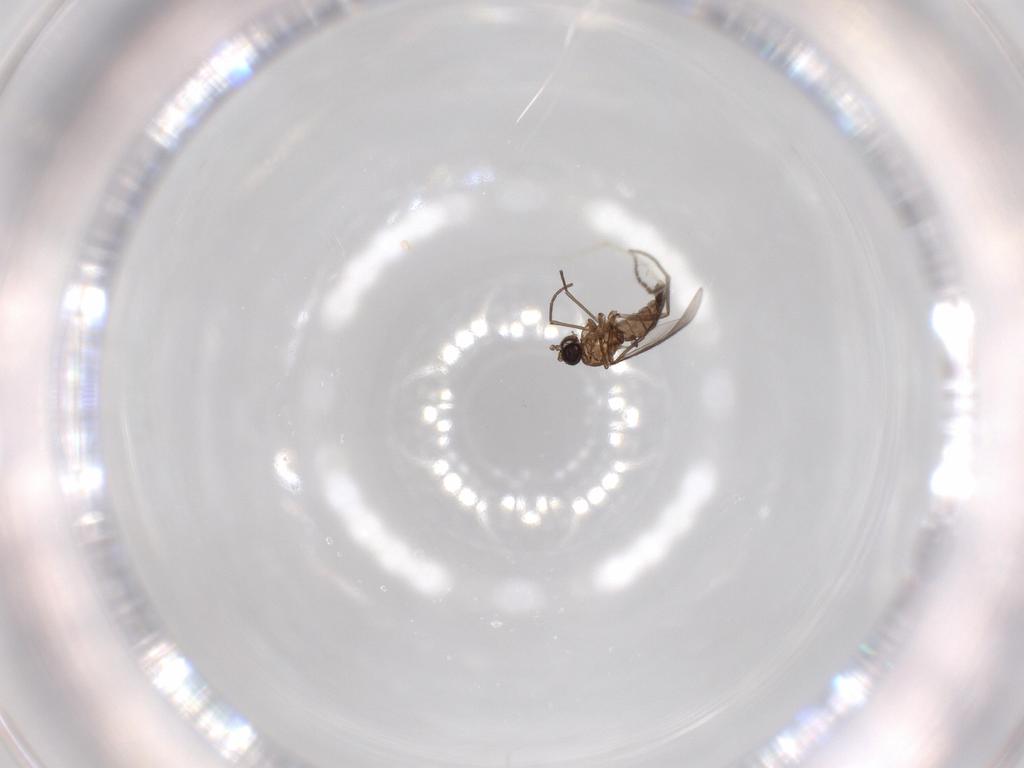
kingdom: Animalia
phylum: Arthropoda
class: Insecta
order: Diptera
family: Sciaridae
